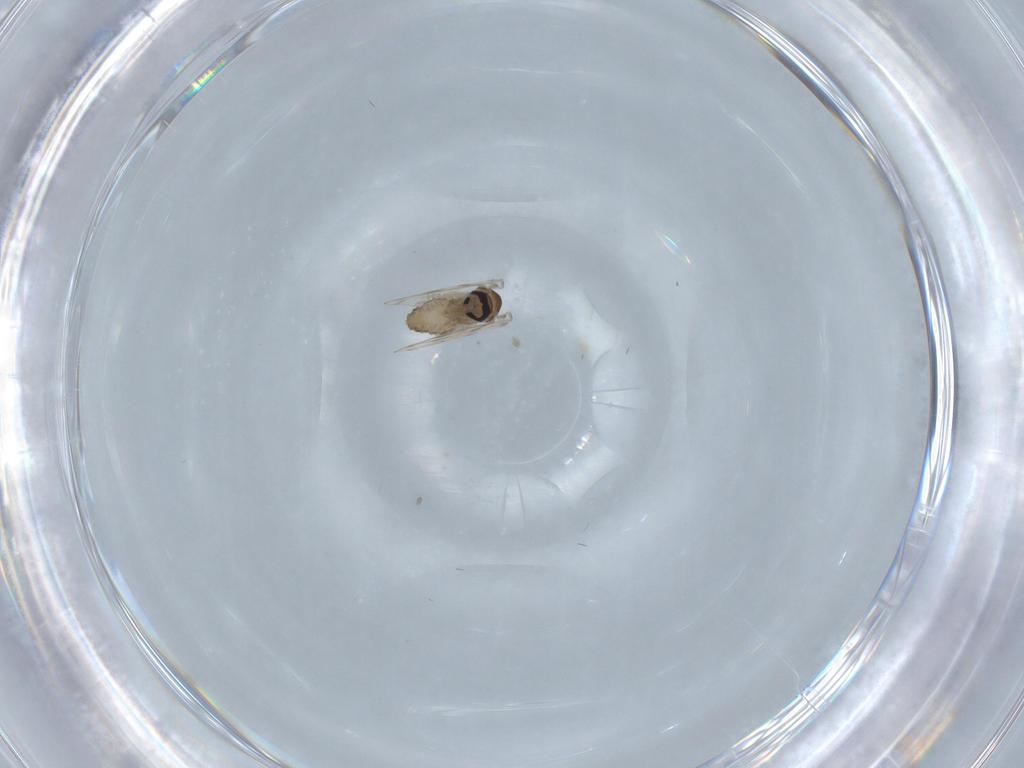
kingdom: Animalia
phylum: Arthropoda
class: Insecta
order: Diptera
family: Psychodidae
